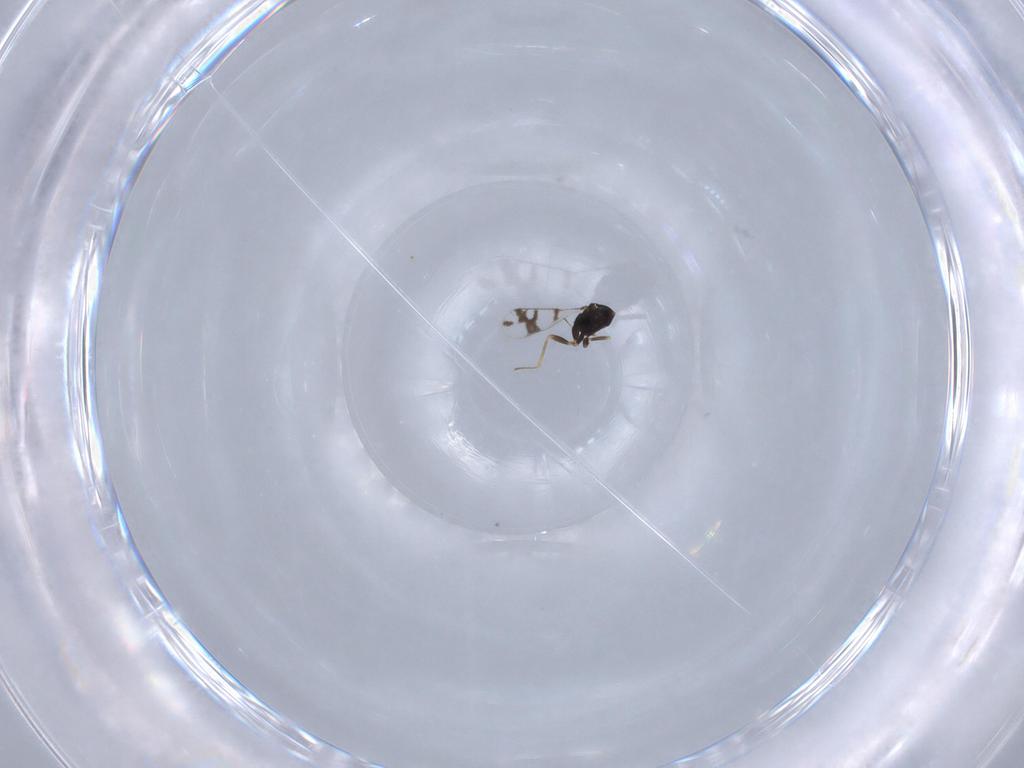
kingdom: Animalia
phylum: Arthropoda
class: Insecta
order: Hymenoptera
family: Eulophidae
